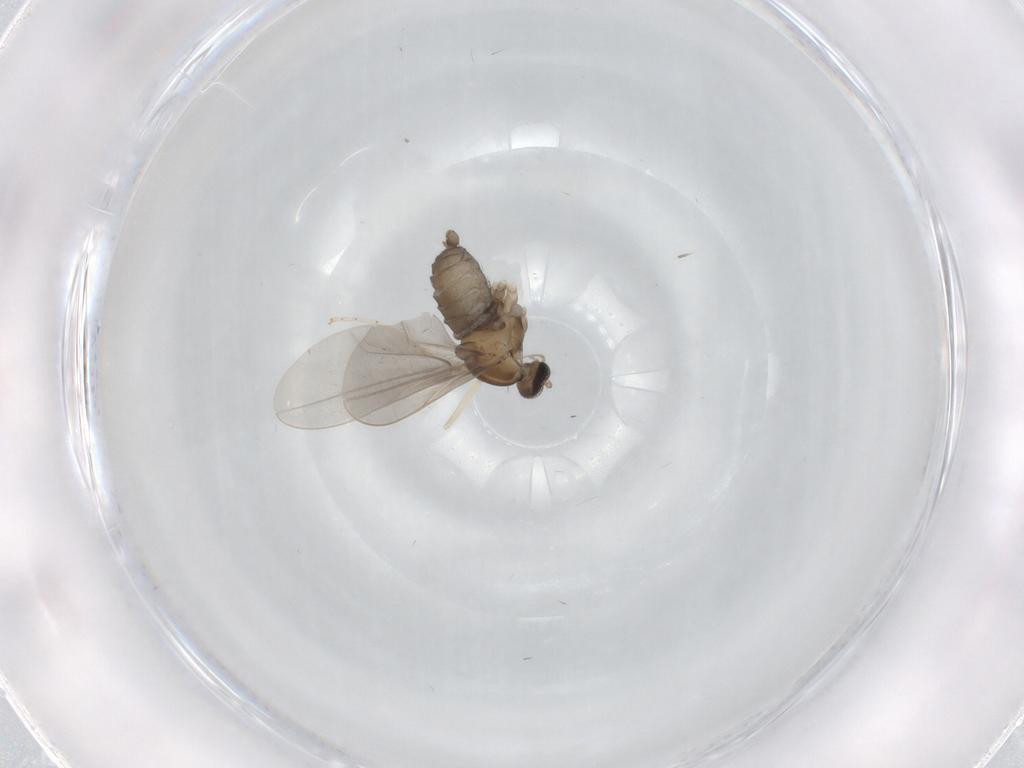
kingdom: Animalia
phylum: Arthropoda
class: Insecta
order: Diptera
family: Cecidomyiidae
